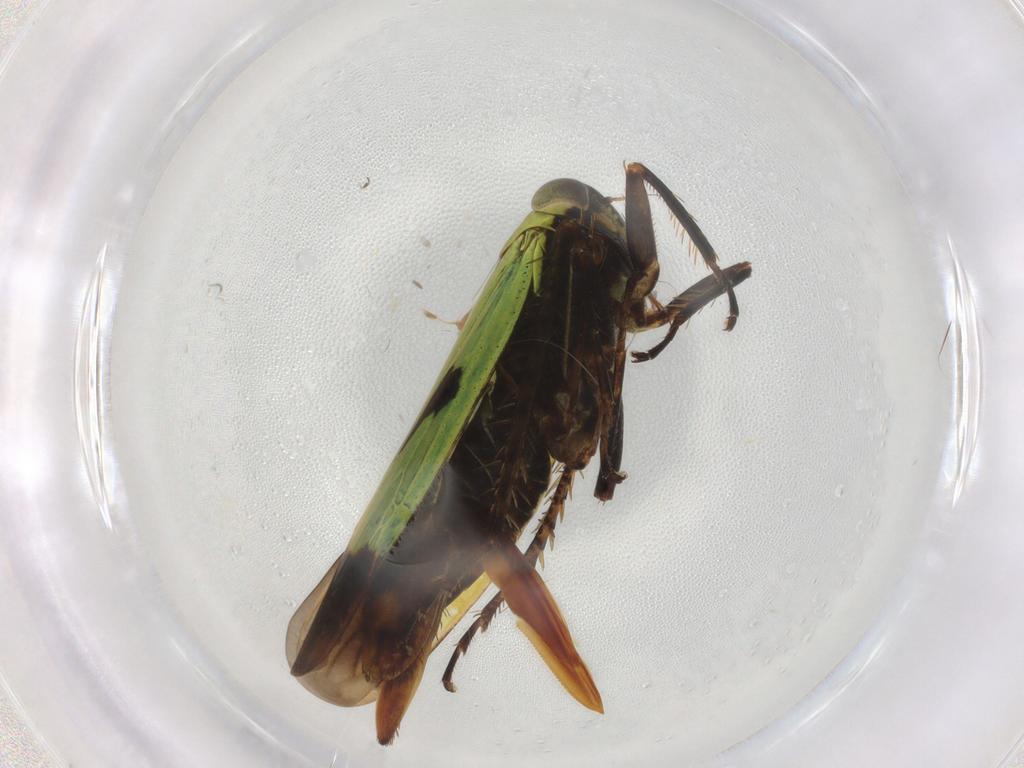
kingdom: Animalia
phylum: Arthropoda
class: Insecta
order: Hemiptera
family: Cicadellidae
